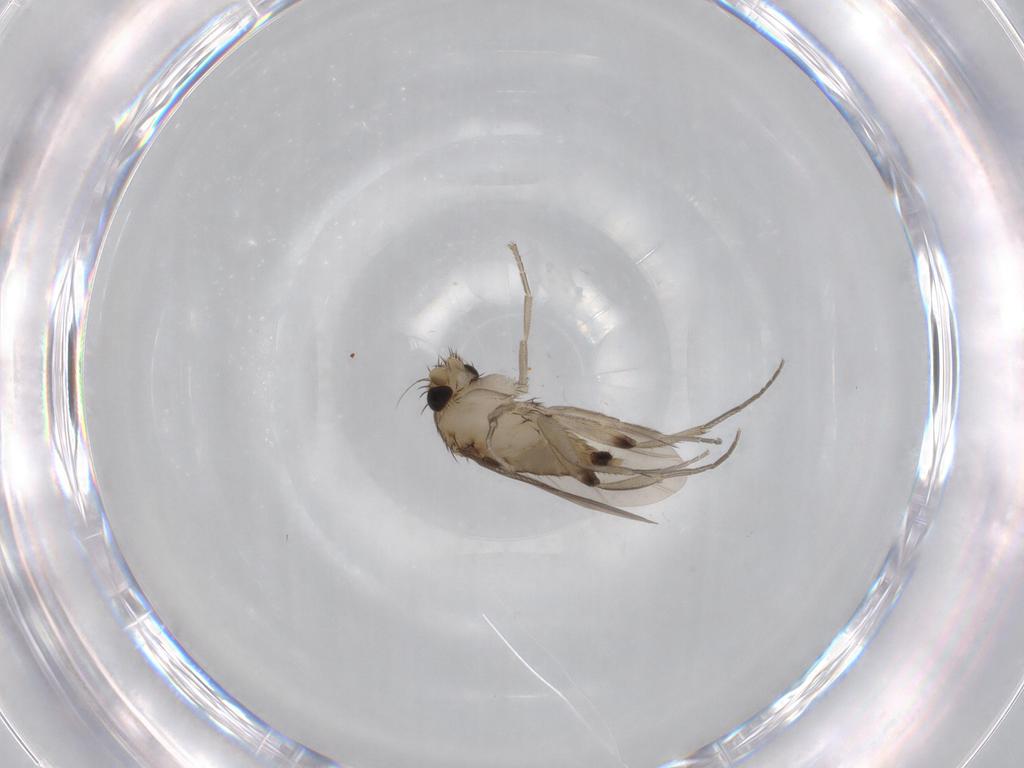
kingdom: Animalia
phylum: Arthropoda
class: Insecta
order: Diptera
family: Phoridae
